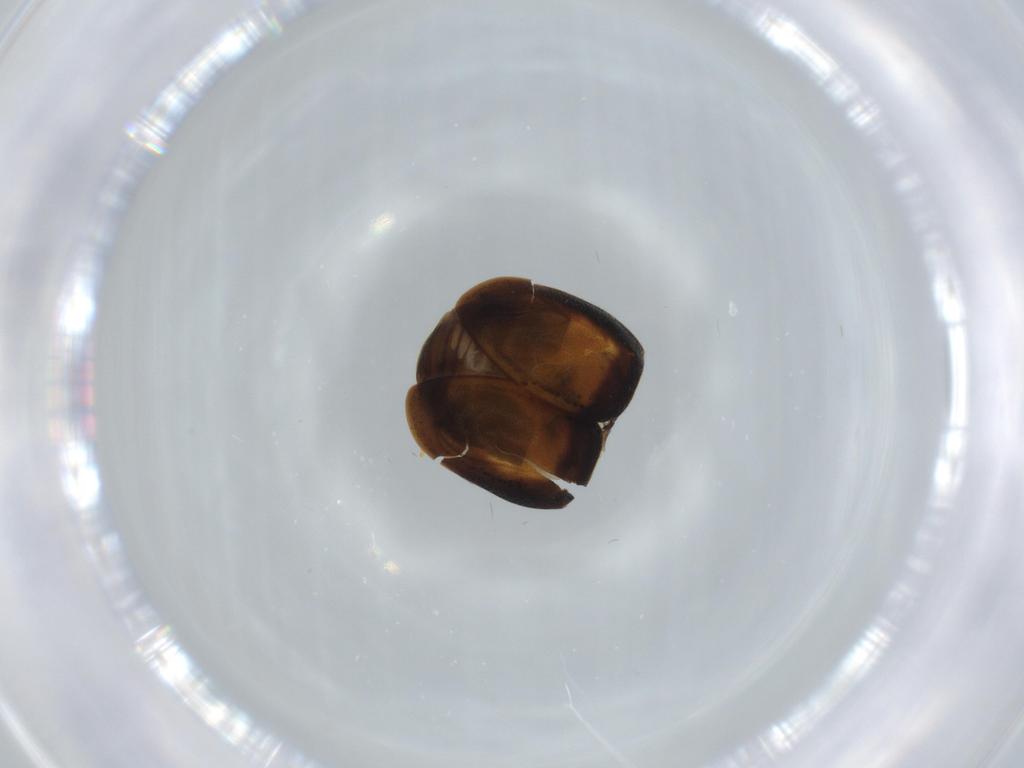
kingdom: Animalia
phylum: Arthropoda
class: Insecta
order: Coleoptera
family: Coccinellidae
